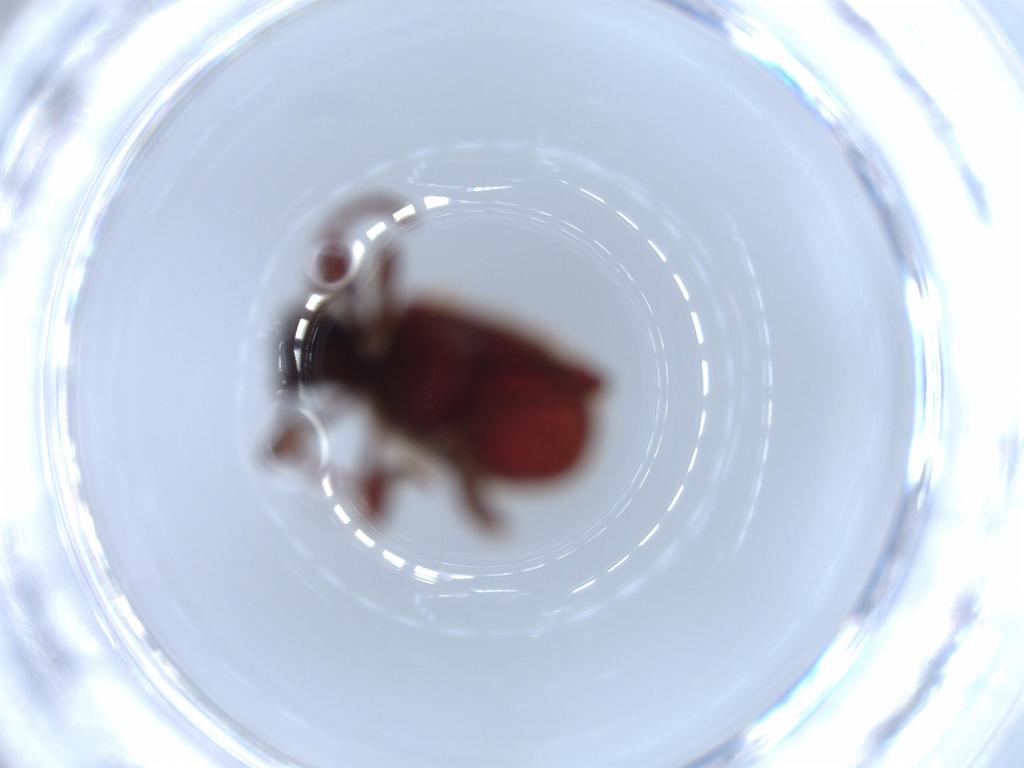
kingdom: Animalia
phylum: Arthropoda
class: Insecta
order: Coleoptera
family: Ptinidae
